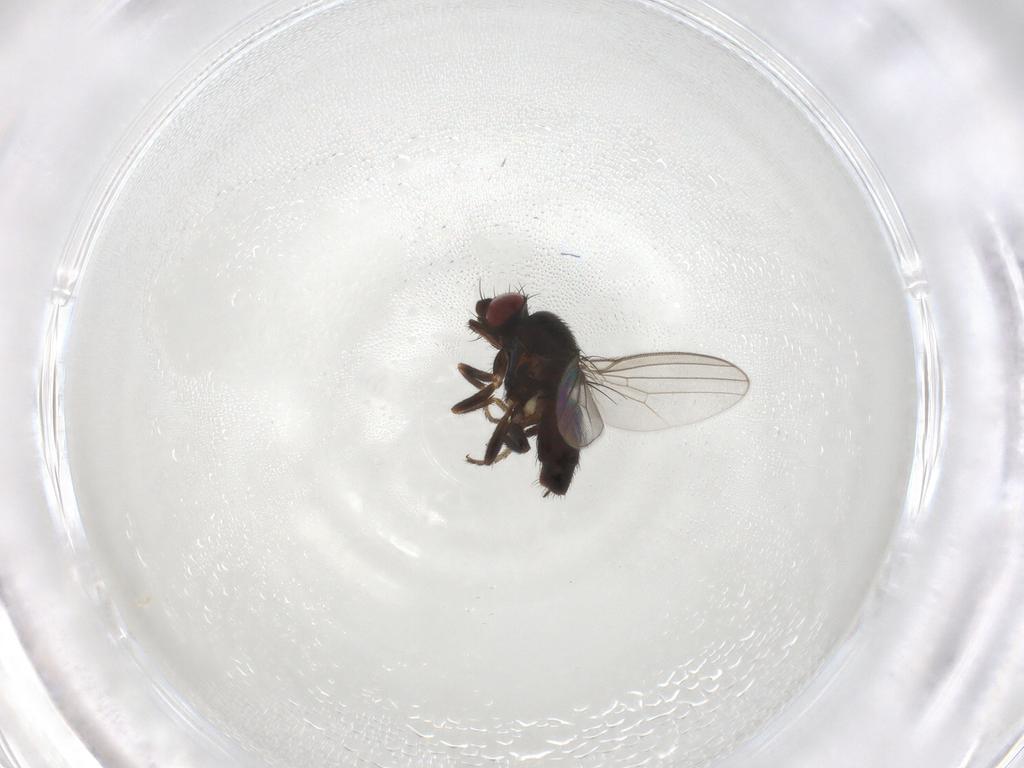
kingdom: Animalia
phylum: Arthropoda
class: Insecta
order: Diptera
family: Milichiidae
